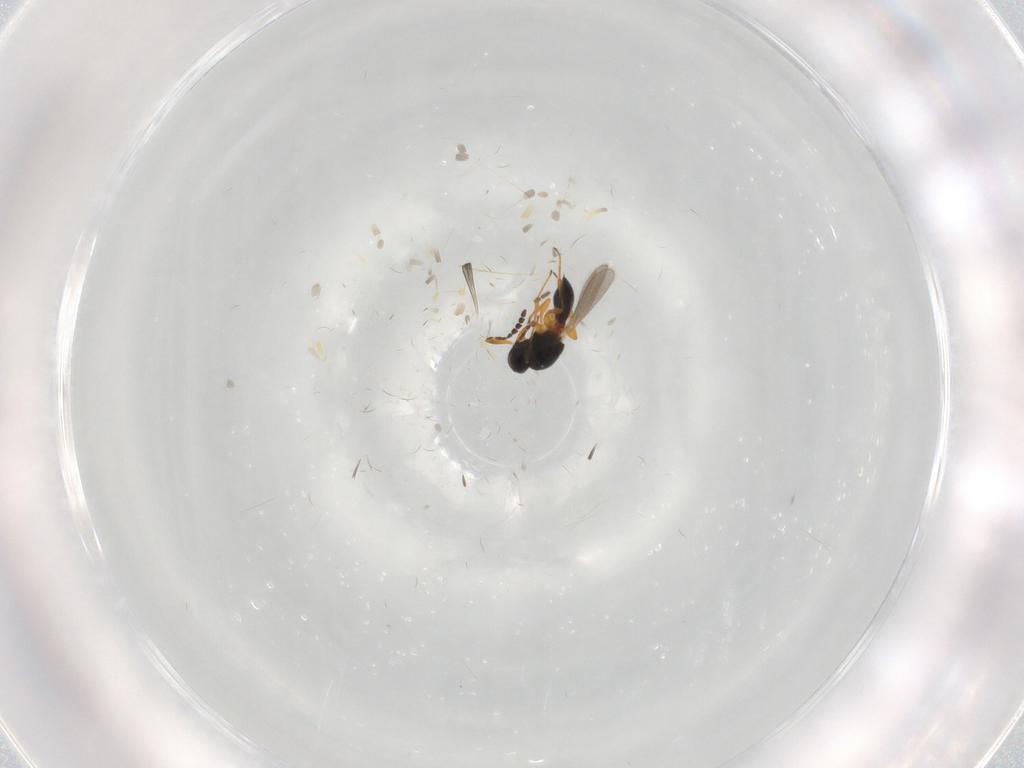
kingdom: Animalia
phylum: Arthropoda
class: Insecta
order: Hymenoptera
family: Platygastridae
